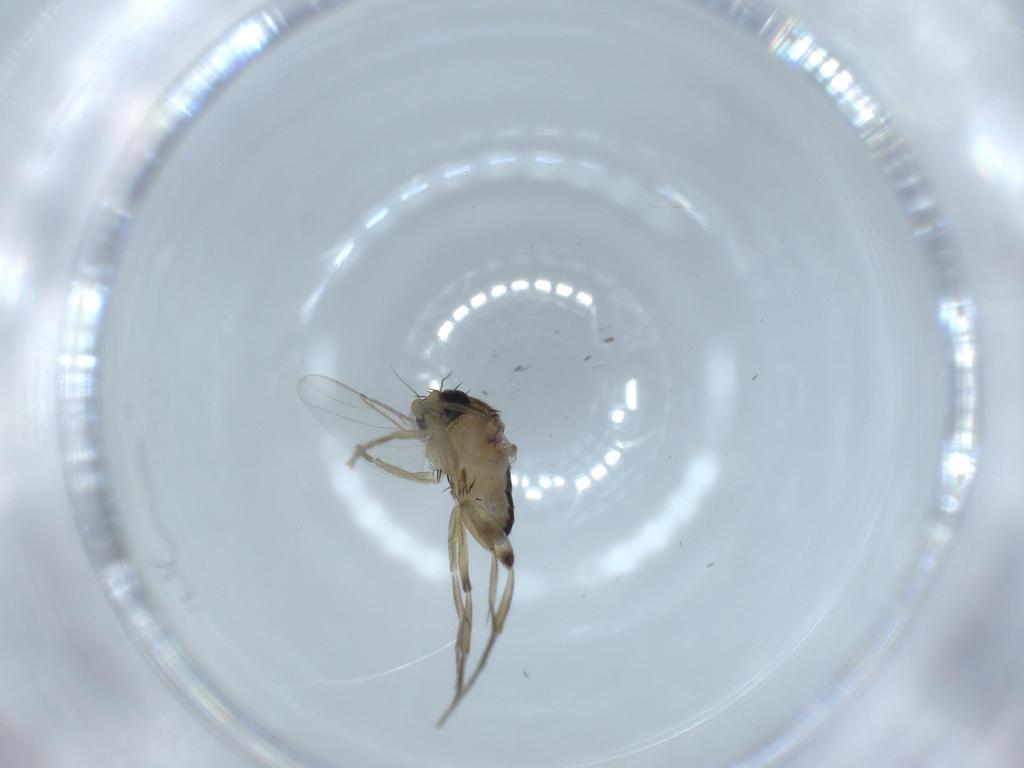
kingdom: Animalia
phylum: Arthropoda
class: Insecta
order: Diptera
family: Phoridae
